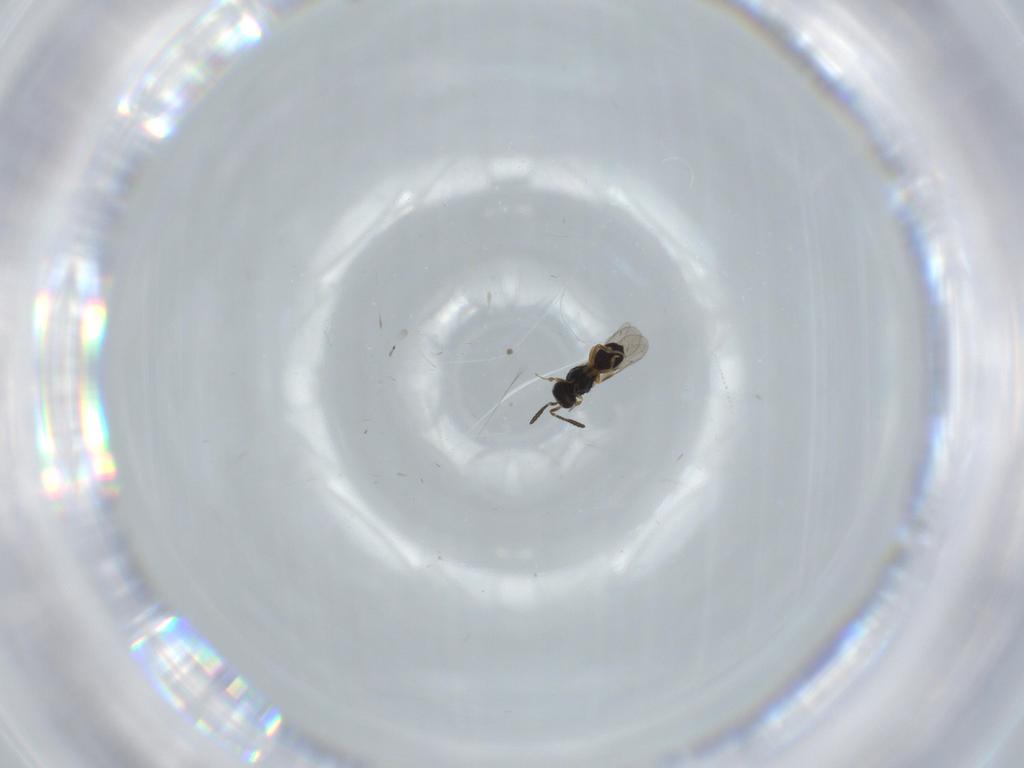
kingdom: Animalia
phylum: Arthropoda
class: Insecta
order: Hymenoptera
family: Scelionidae
